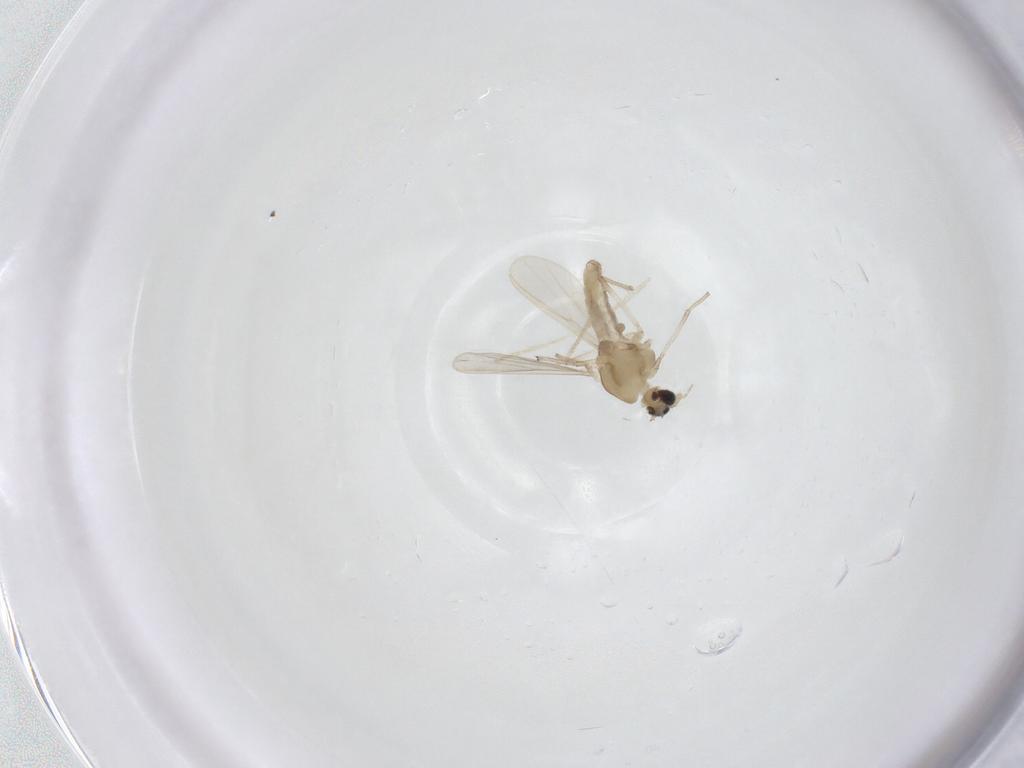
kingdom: Animalia
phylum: Arthropoda
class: Insecta
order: Diptera
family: Chironomidae
